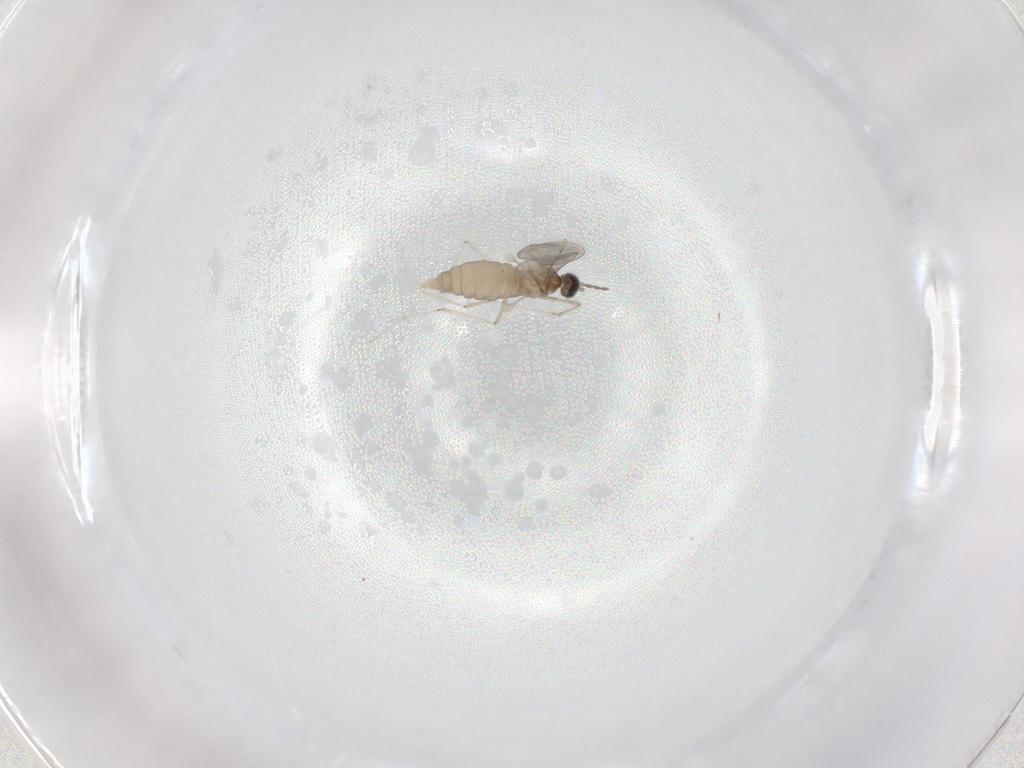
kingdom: Animalia
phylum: Arthropoda
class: Insecta
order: Diptera
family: Cecidomyiidae
